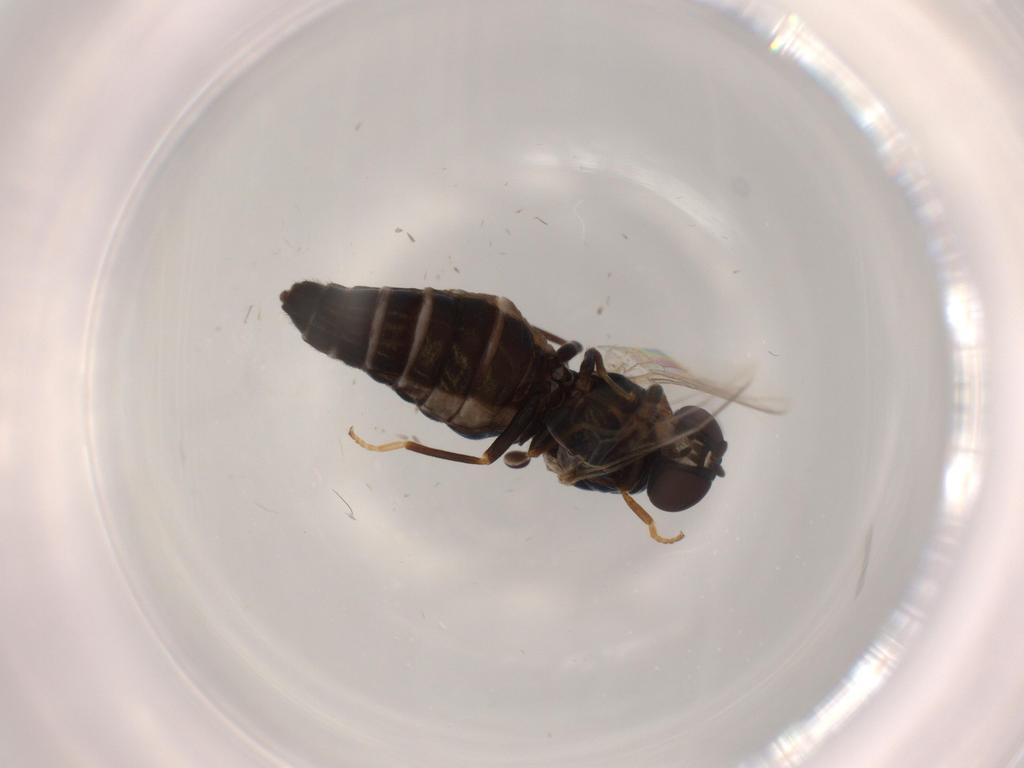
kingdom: Animalia
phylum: Arthropoda
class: Insecta
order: Diptera
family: Scenopinidae
